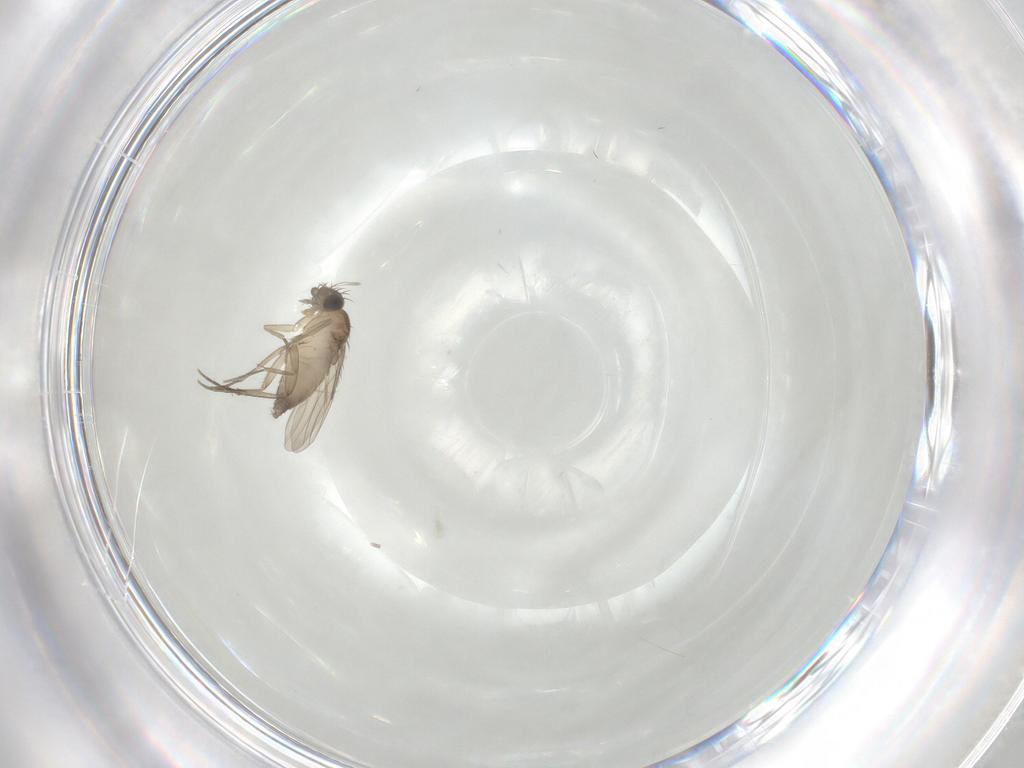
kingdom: Animalia
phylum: Arthropoda
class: Insecta
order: Diptera
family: Phoridae
